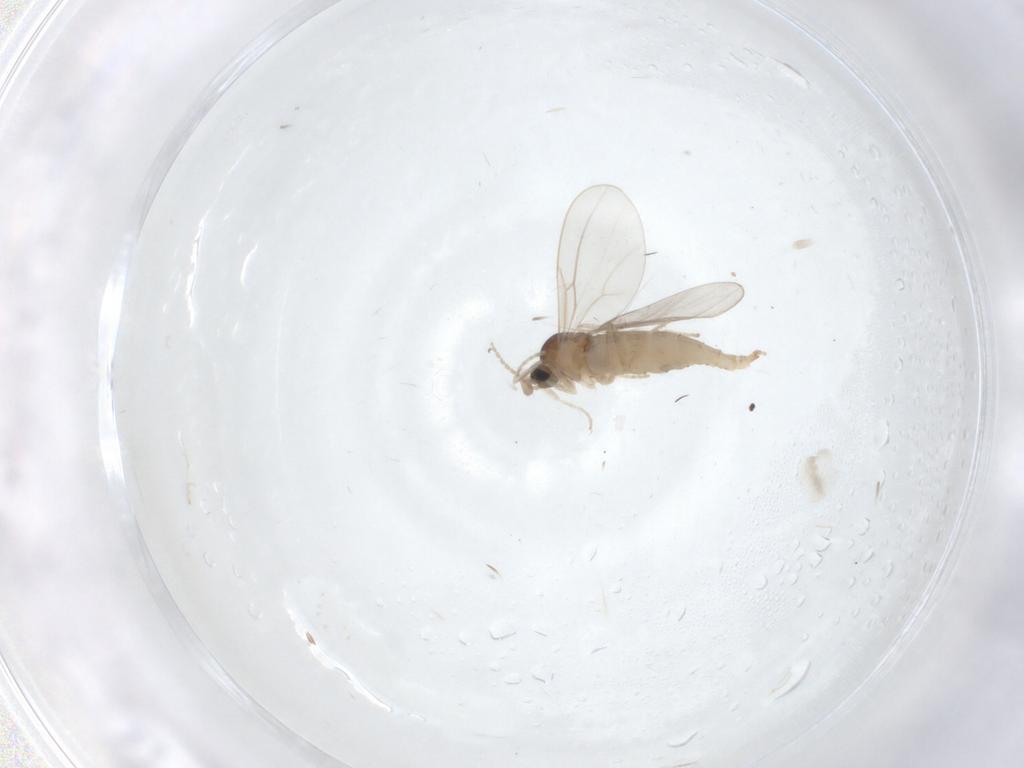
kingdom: Animalia
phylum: Arthropoda
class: Insecta
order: Diptera
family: Cecidomyiidae
